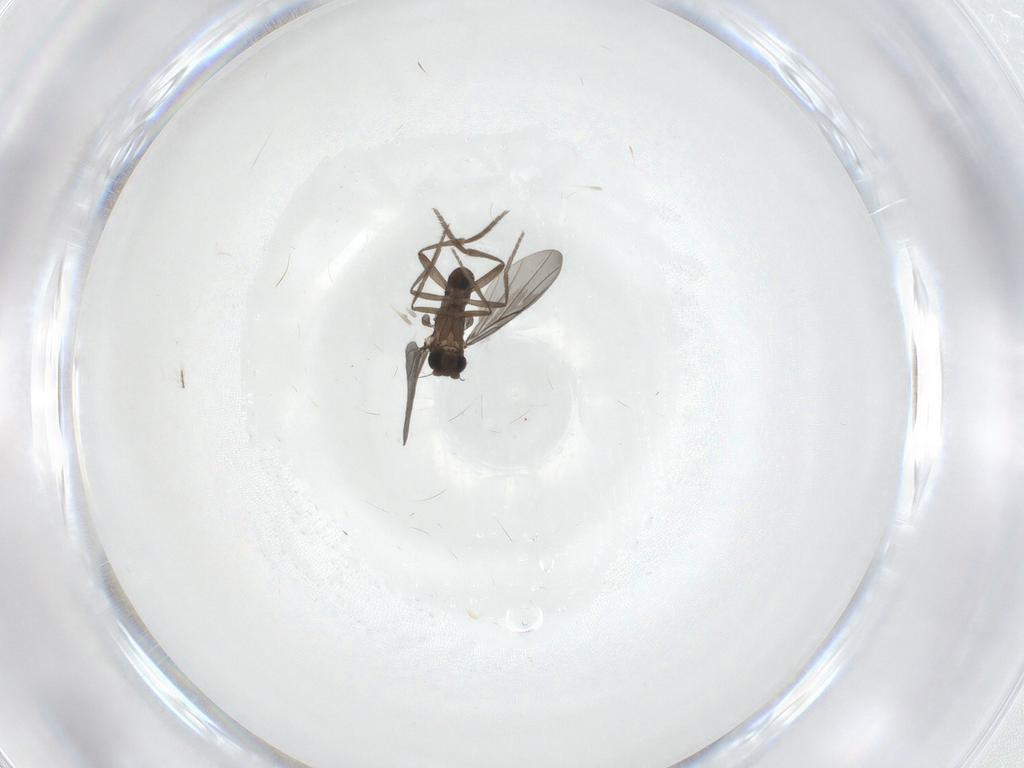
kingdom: Animalia
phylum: Arthropoda
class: Insecta
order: Diptera
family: Phoridae
